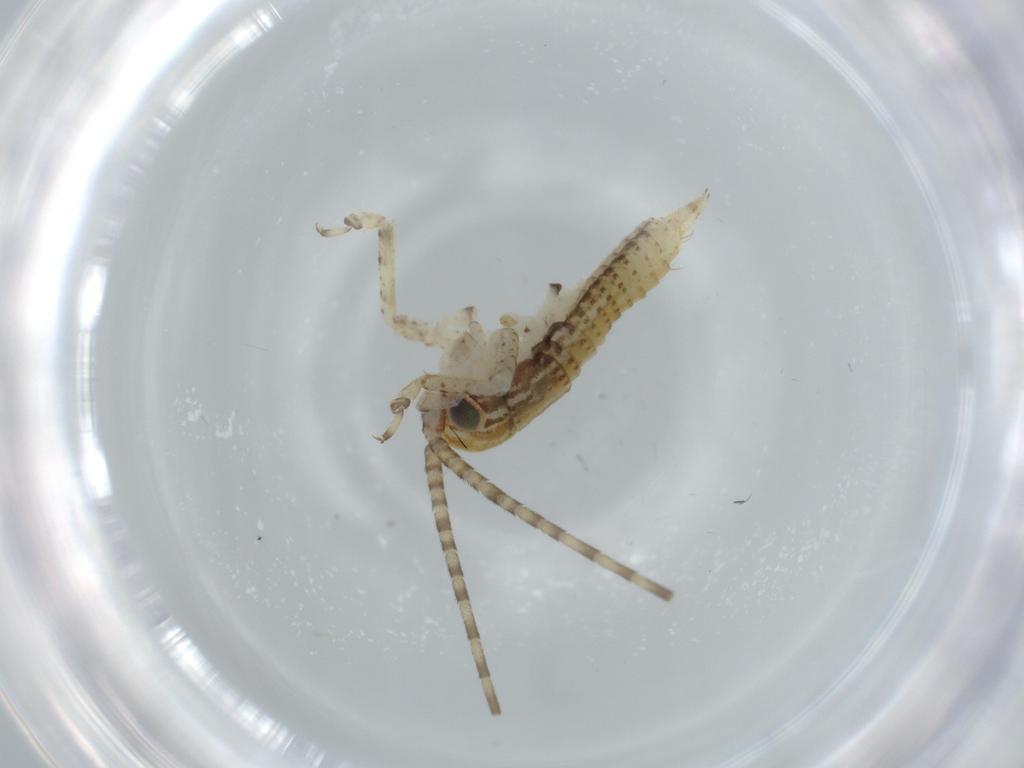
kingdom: Animalia
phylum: Arthropoda
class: Insecta
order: Orthoptera
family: Gryllidae
